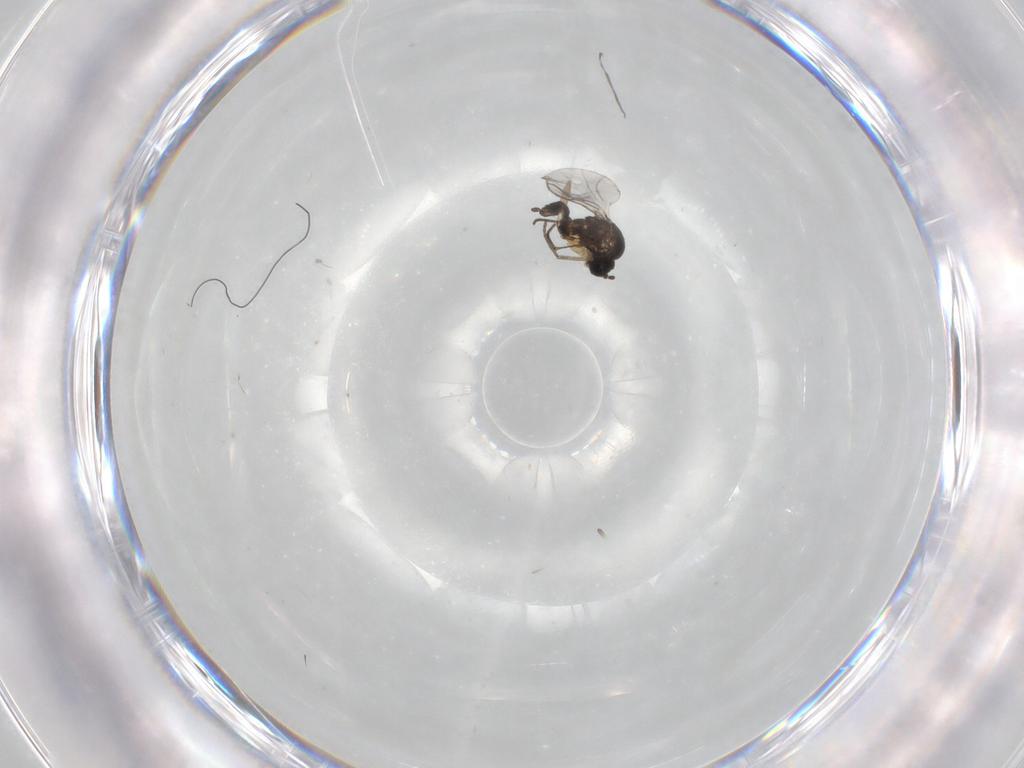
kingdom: Animalia
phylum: Arthropoda
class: Insecta
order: Diptera
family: Sciaridae
